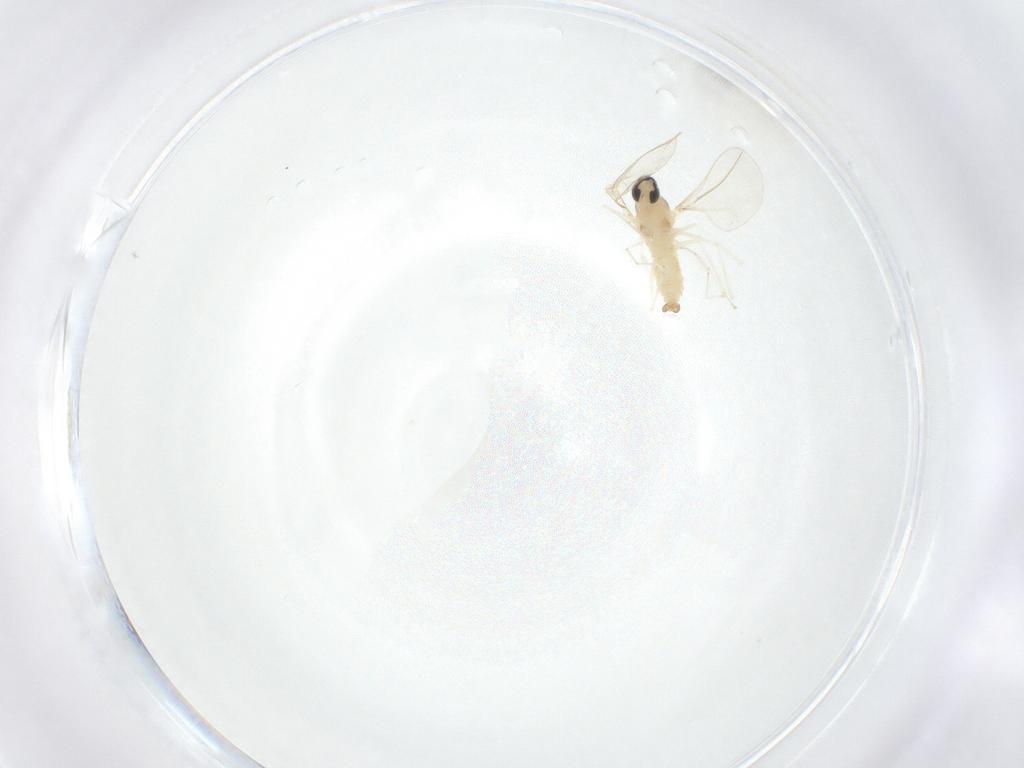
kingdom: Animalia
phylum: Arthropoda
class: Insecta
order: Diptera
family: Cecidomyiidae
